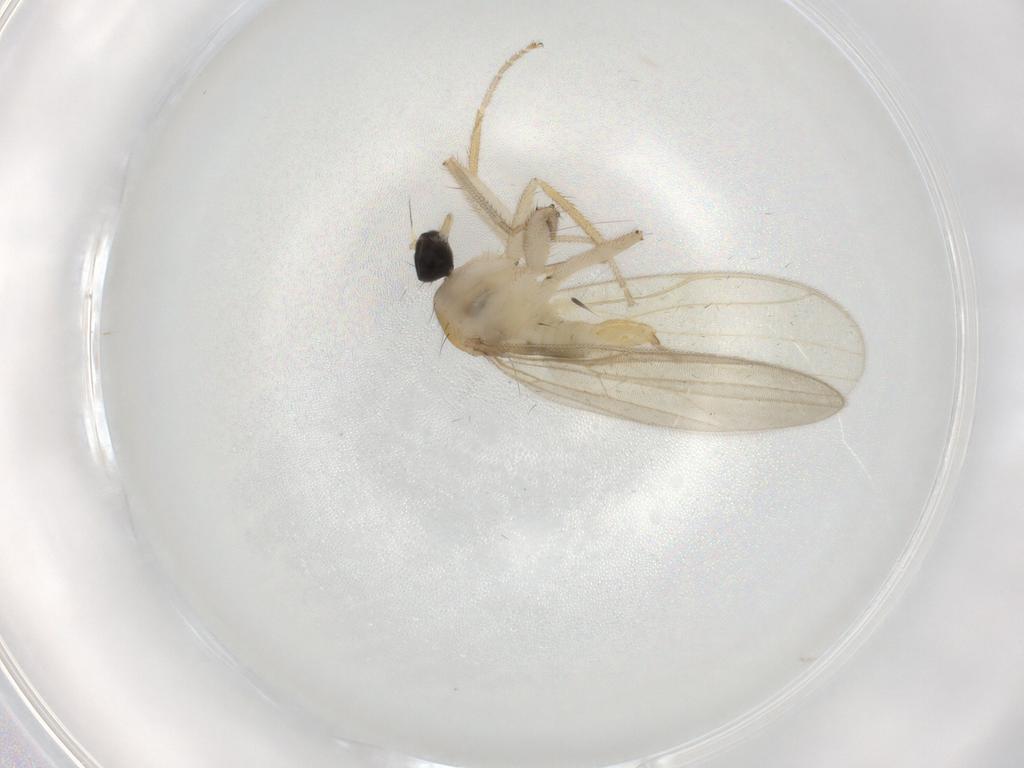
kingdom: Animalia
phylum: Arthropoda
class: Insecta
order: Diptera
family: Hybotidae
